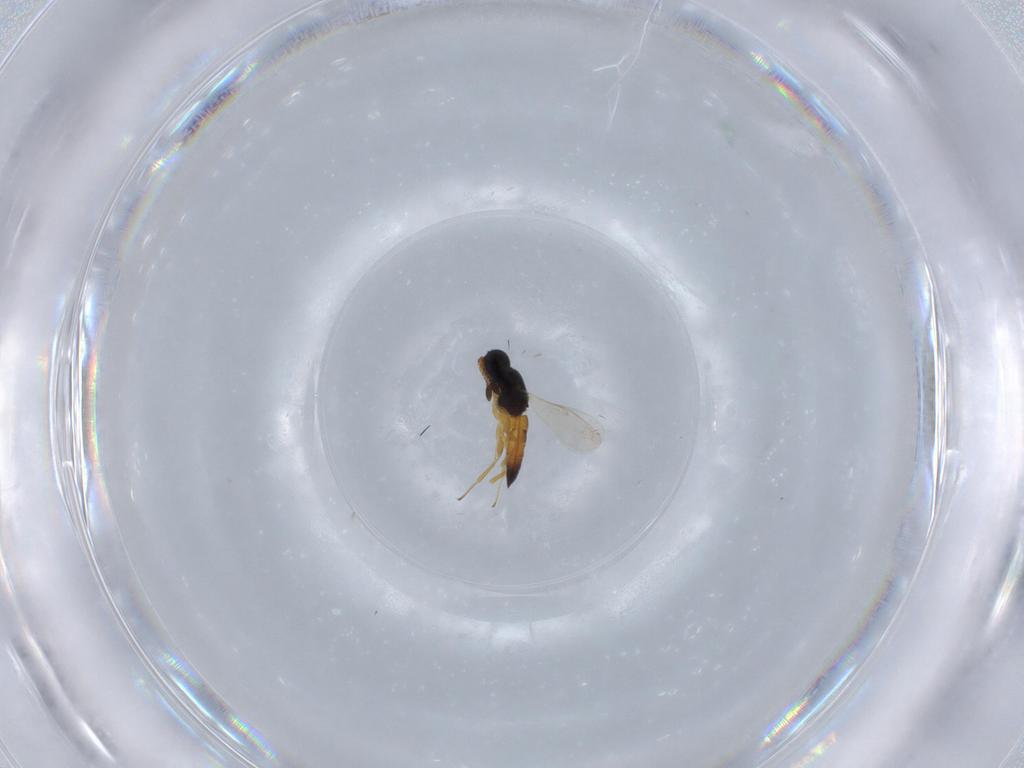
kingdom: Animalia
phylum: Arthropoda
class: Insecta
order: Hymenoptera
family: Scelionidae
